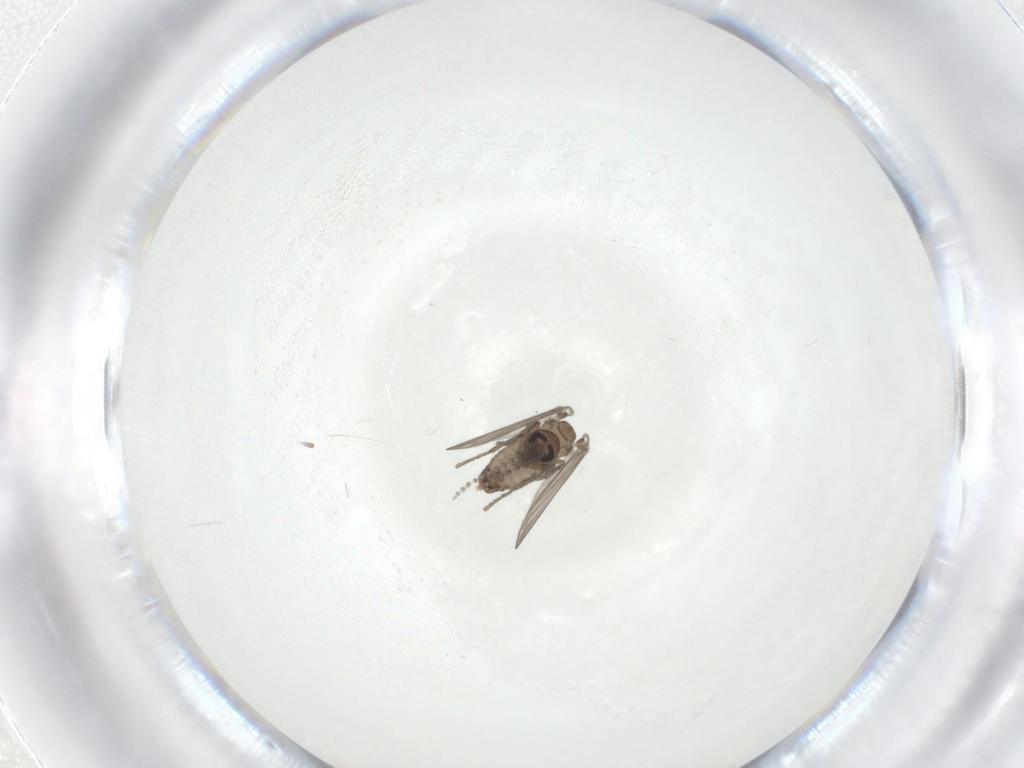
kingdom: Animalia
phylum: Arthropoda
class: Insecta
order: Diptera
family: Psychodidae
